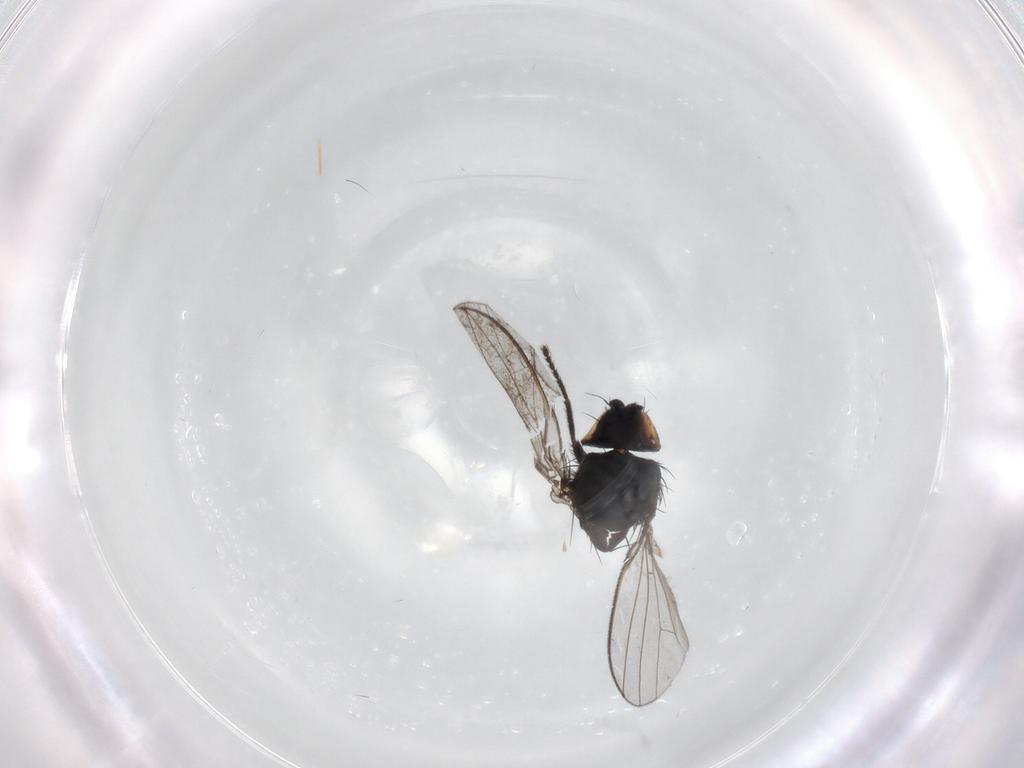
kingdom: Animalia
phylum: Arthropoda
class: Insecta
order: Diptera
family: Milichiidae
